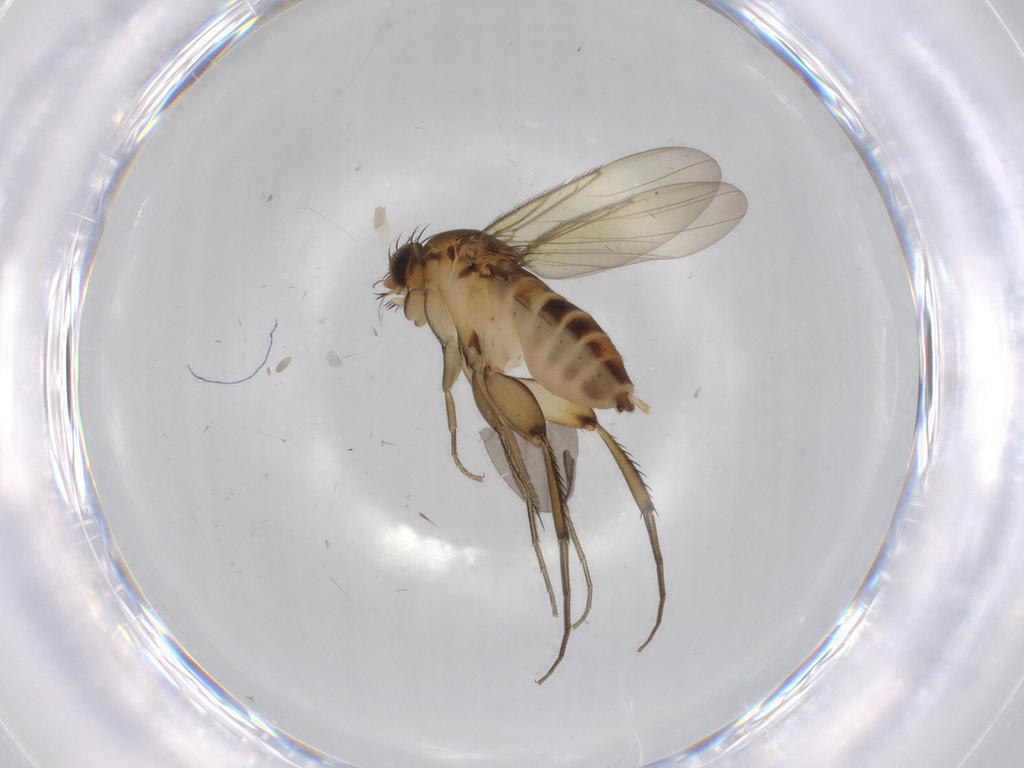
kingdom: Animalia
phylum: Arthropoda
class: Insecta
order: Diptera
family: Phoridae
